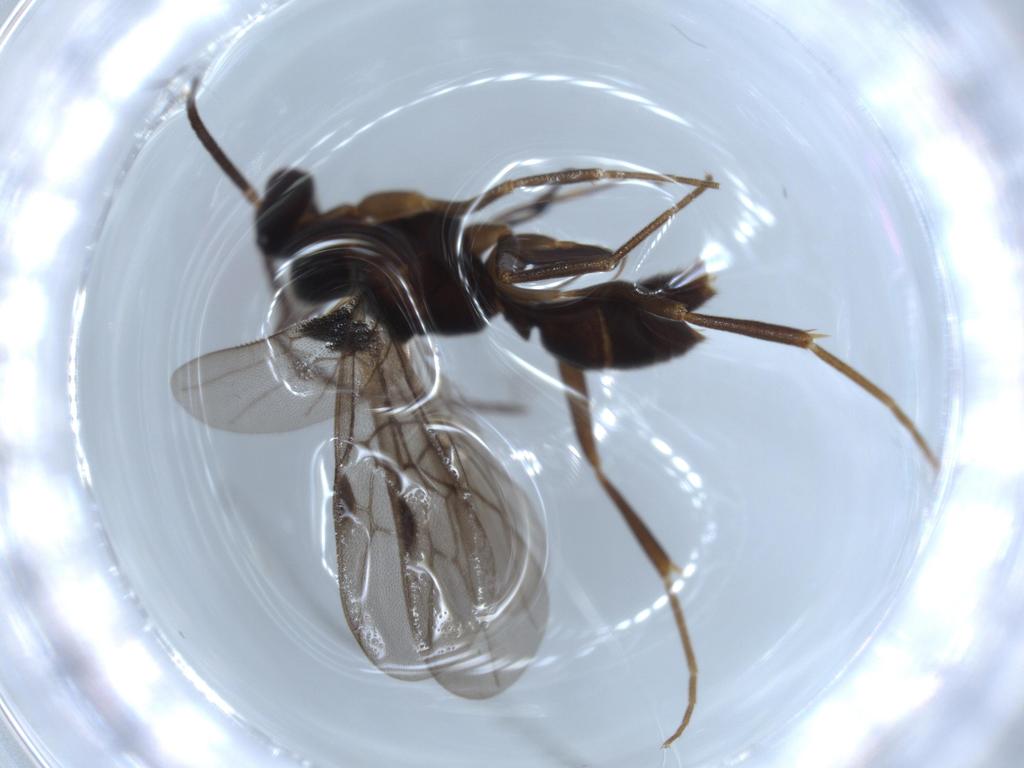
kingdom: Animalia
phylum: Arthropoda
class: Insecta
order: Hymenoptera
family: Formicidae
